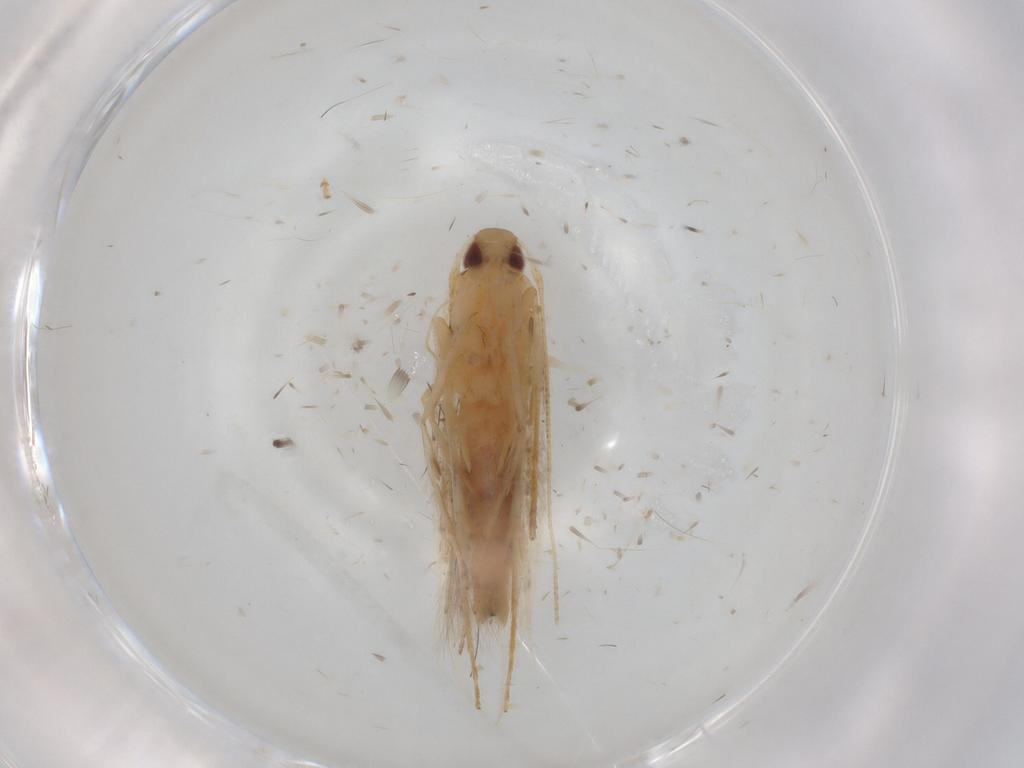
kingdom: Animalia
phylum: Arthropoda
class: Insecta
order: Lepidoptera
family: Cosmopterigidae
